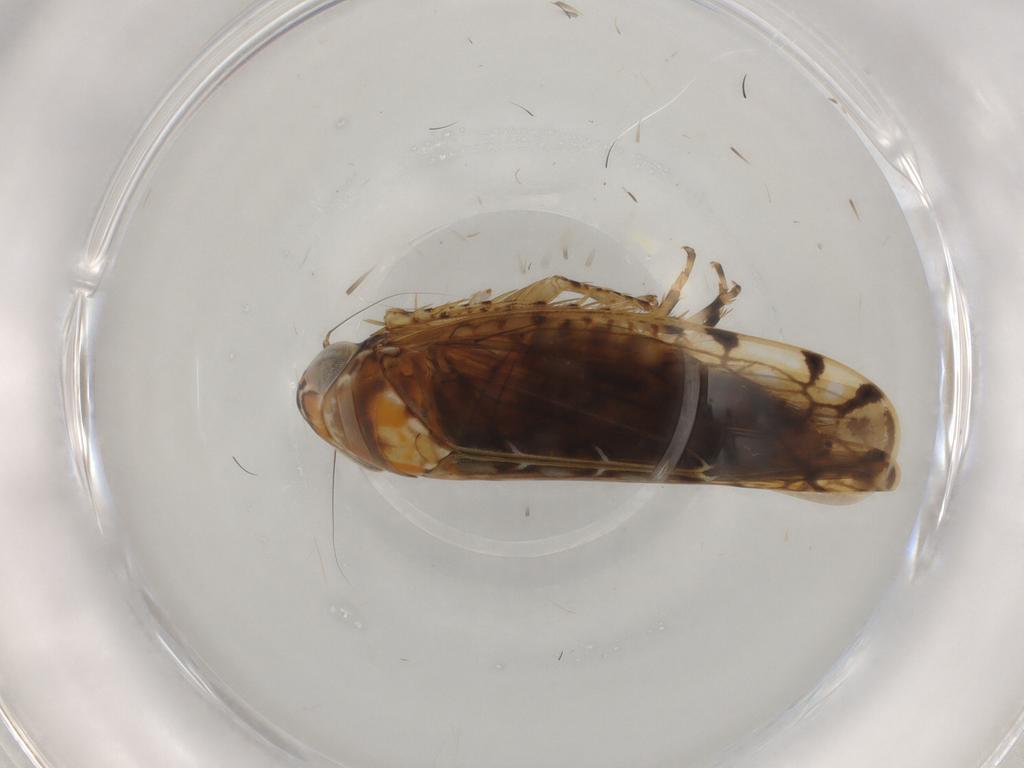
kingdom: Animalia
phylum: Arthropoda
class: Insecta
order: Hemiptera
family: Cicadellidae
